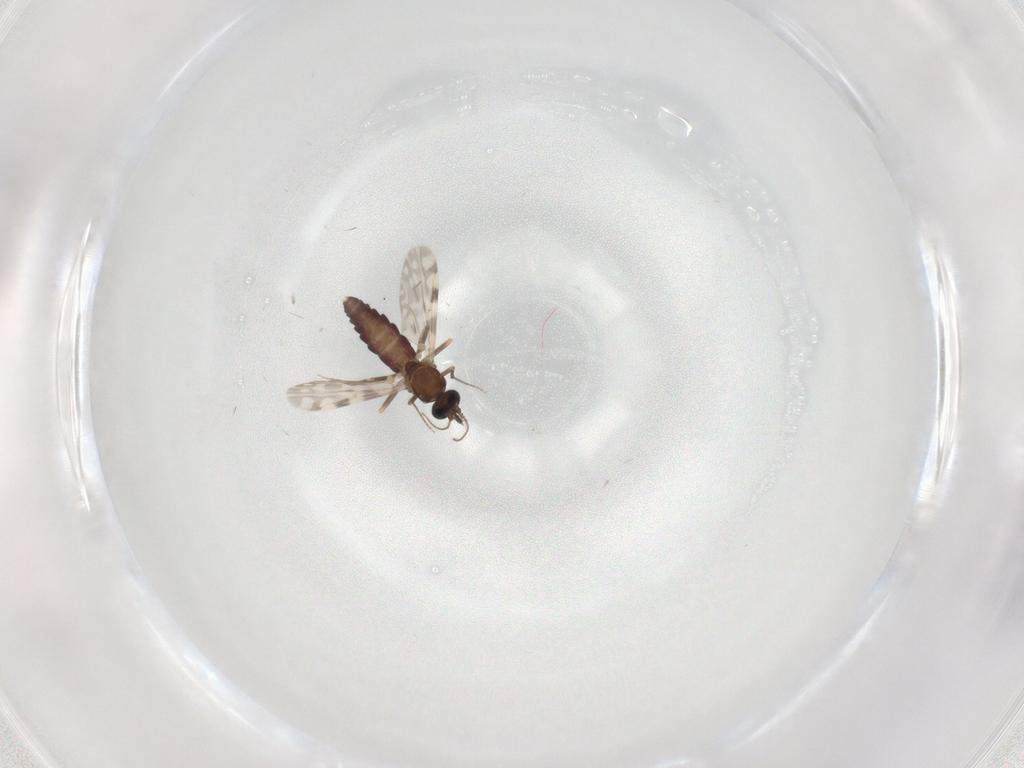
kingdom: Animalia
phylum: Arthropoda
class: Insecta
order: Diptera
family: Ceratopogonidae
